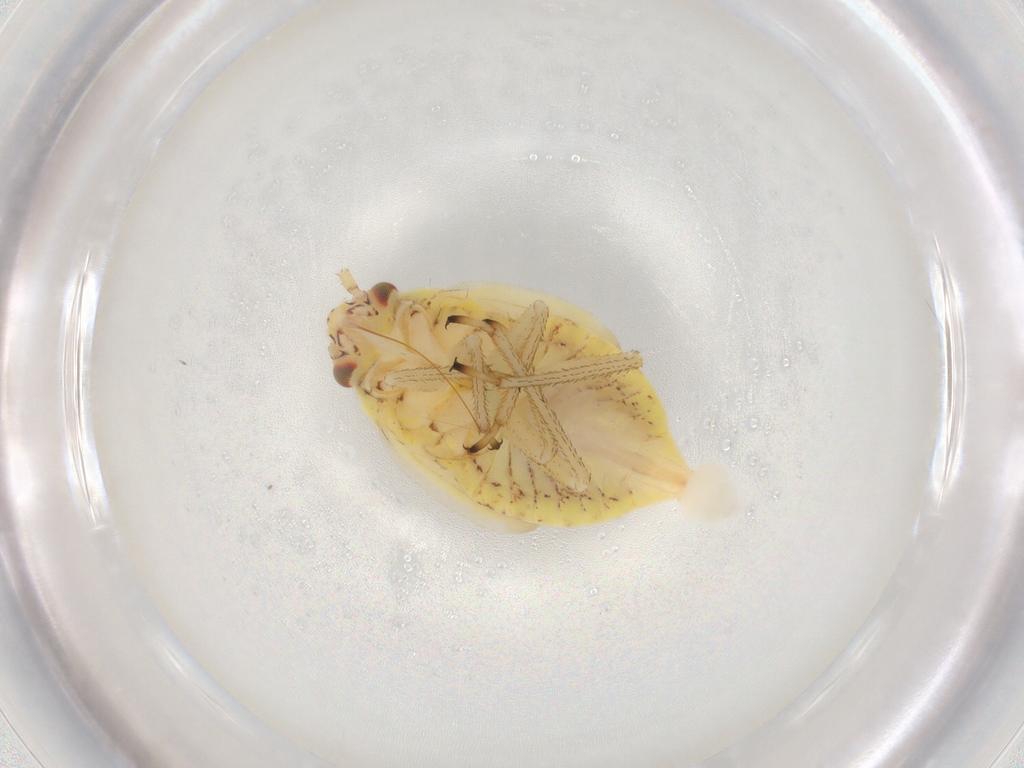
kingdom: Animalia
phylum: Arthropoda
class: Insecta
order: Hemiptera
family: Miridae
